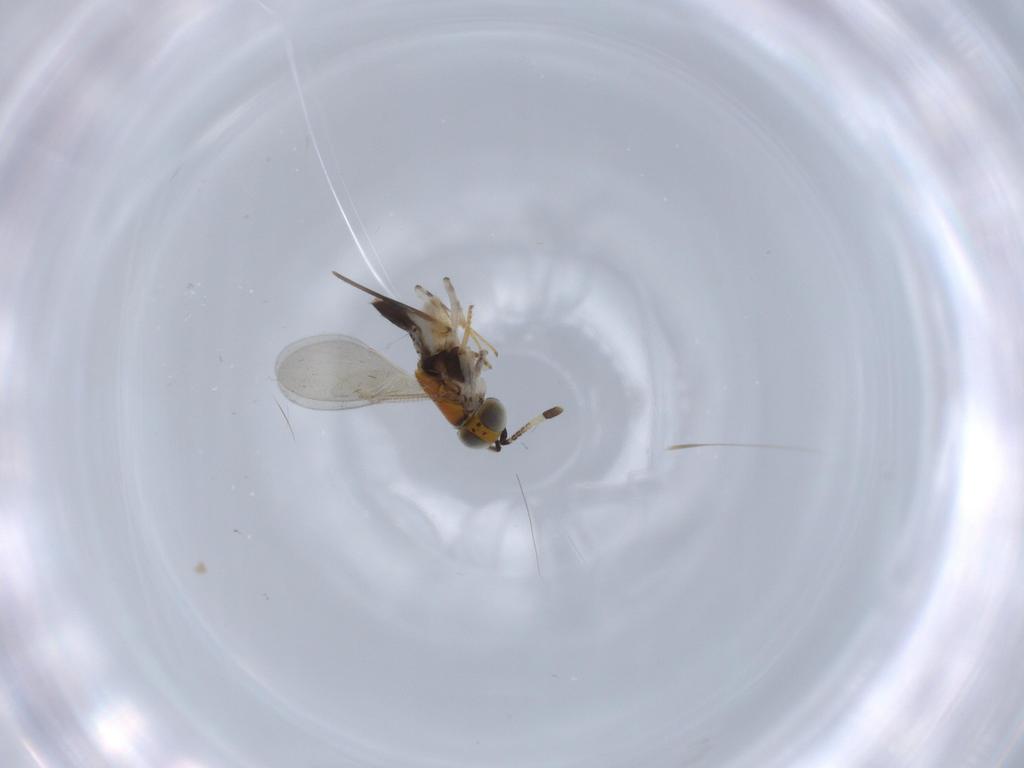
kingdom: Animalia
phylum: Arthropoda
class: Insecta
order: Hymenoptera
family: Encyrtidae
